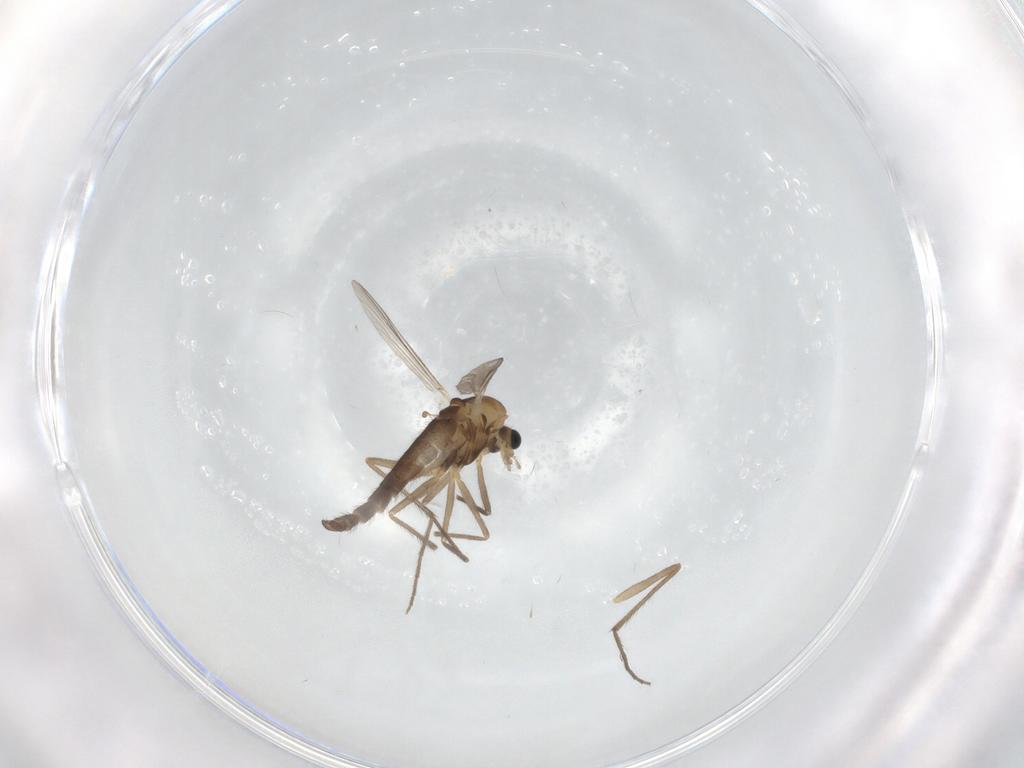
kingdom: Animalia
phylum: Arthropoda
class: Insecta
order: Diptera
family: Chironomidae
